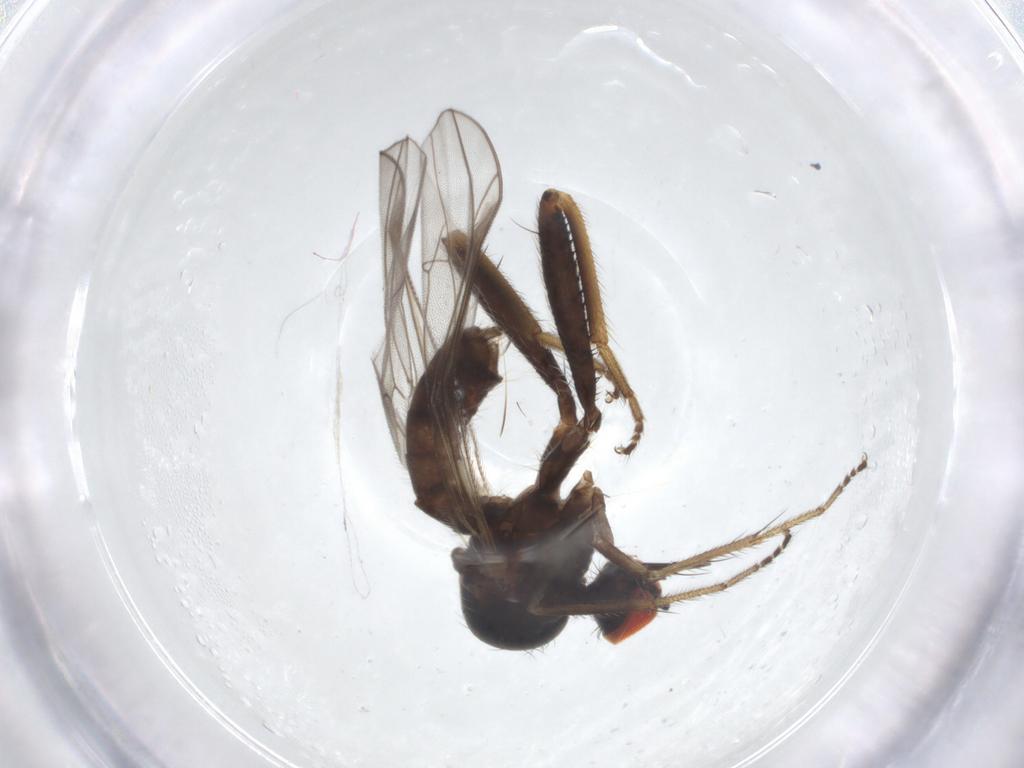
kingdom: Animalia
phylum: Arthropoda
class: Insecta
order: Diptera
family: Hybotidae
